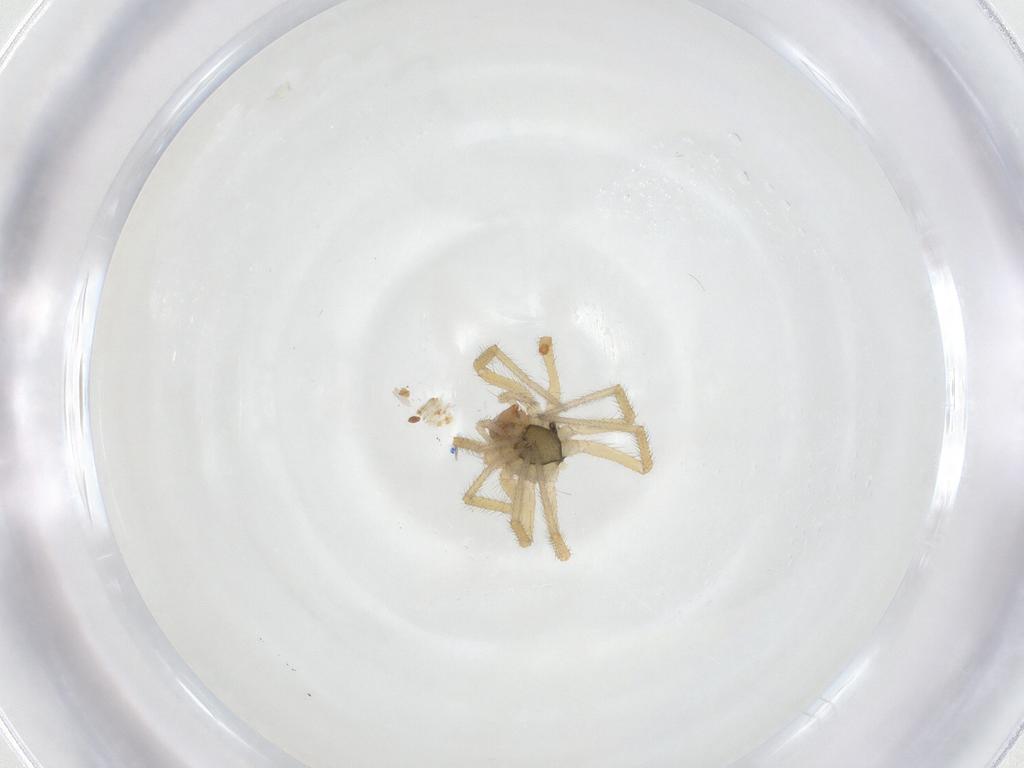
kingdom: Animalia
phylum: Arthropoda
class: Arachnida
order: Araneae
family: Linyphiidae
